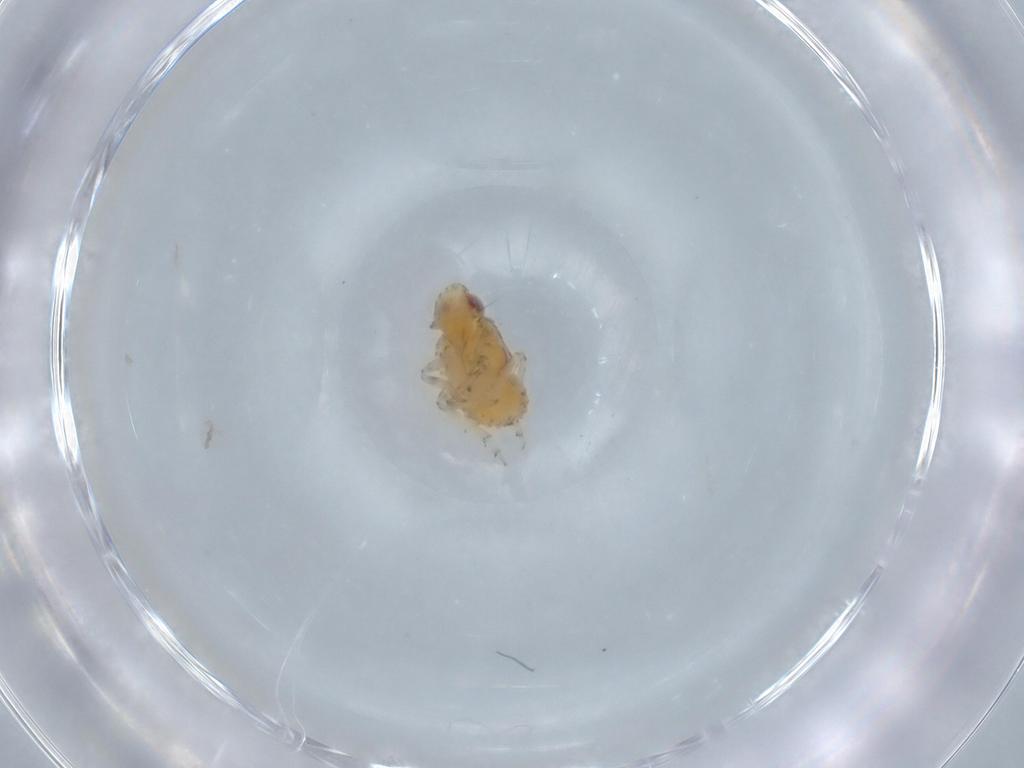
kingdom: Animalia
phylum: Arthropoda
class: Insecta
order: Hemiptera
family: Issidae
